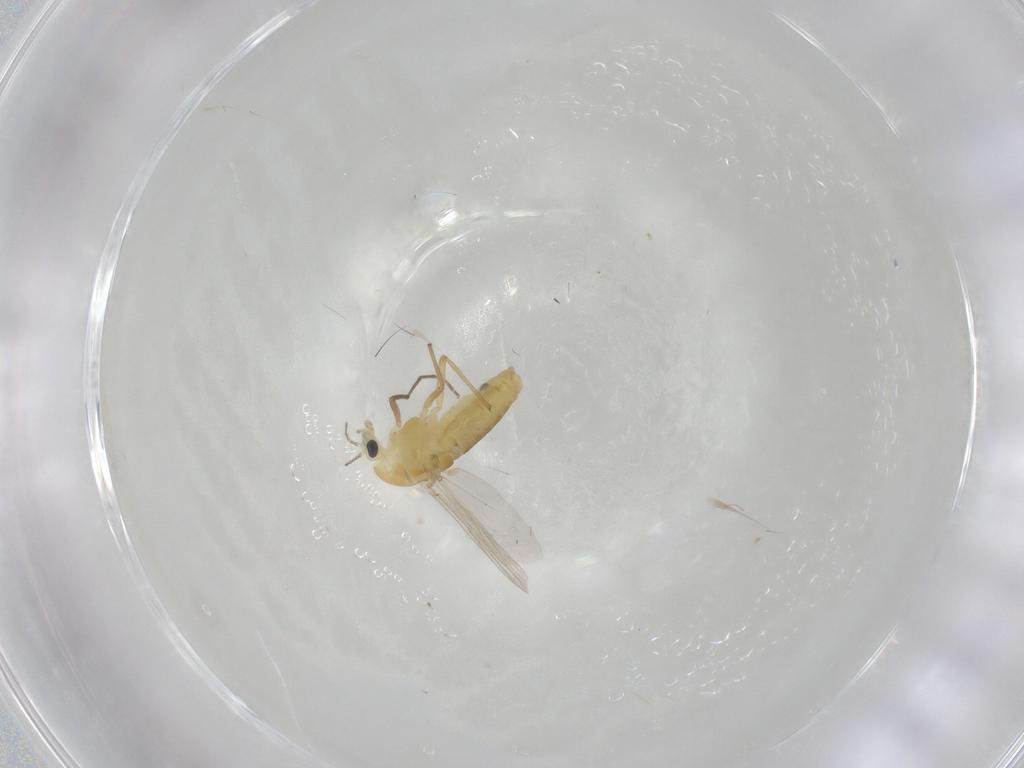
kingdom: Animalia
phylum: Arthropoda
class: Insecta
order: Diptera
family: Chironomidae
